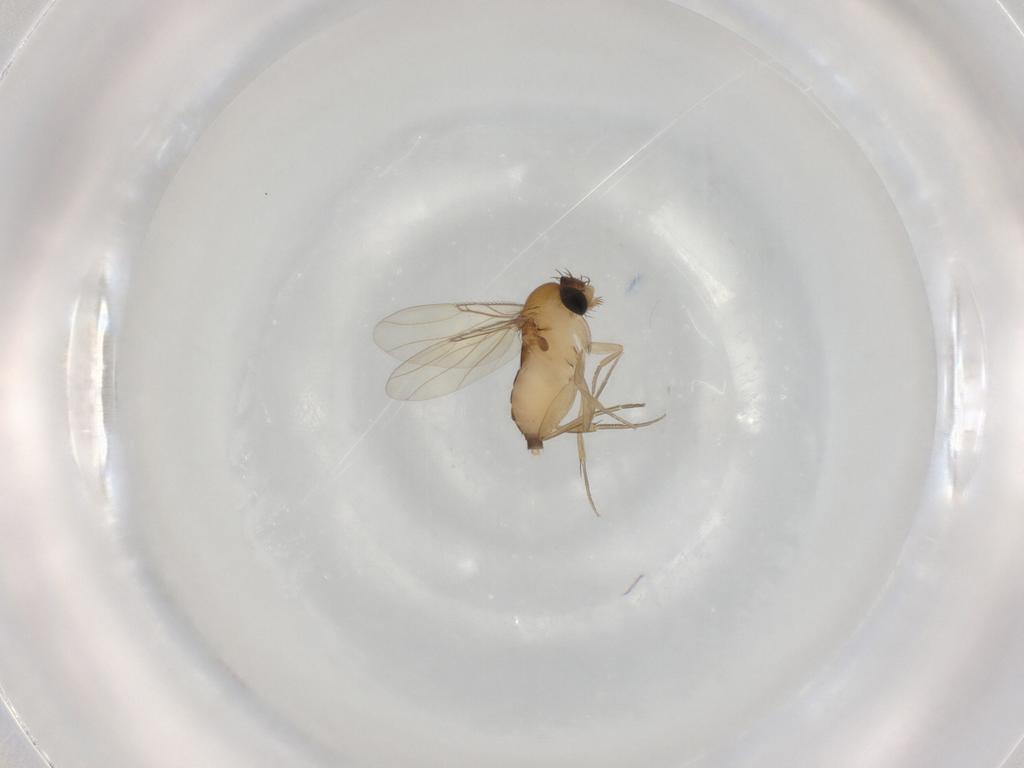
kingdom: Animalia
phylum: Arthropoda
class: Insecta
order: Diptera
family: Phoridae
